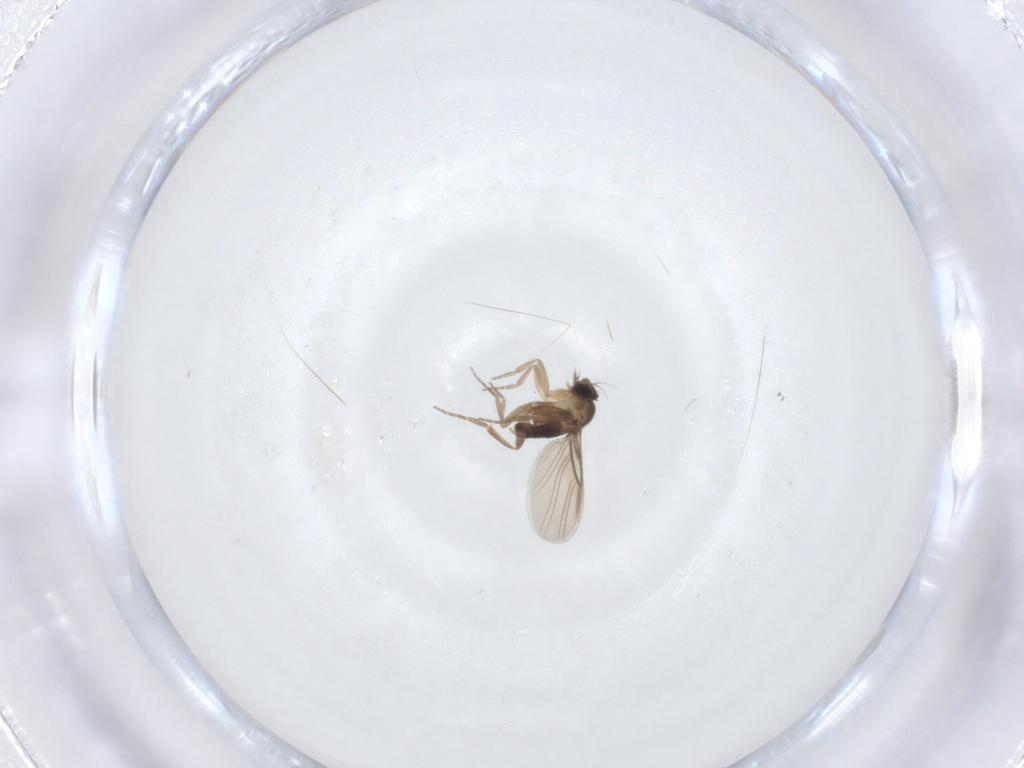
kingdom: Animalia
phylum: Arthropoda
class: Insecta
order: Diptera
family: Phoridae
